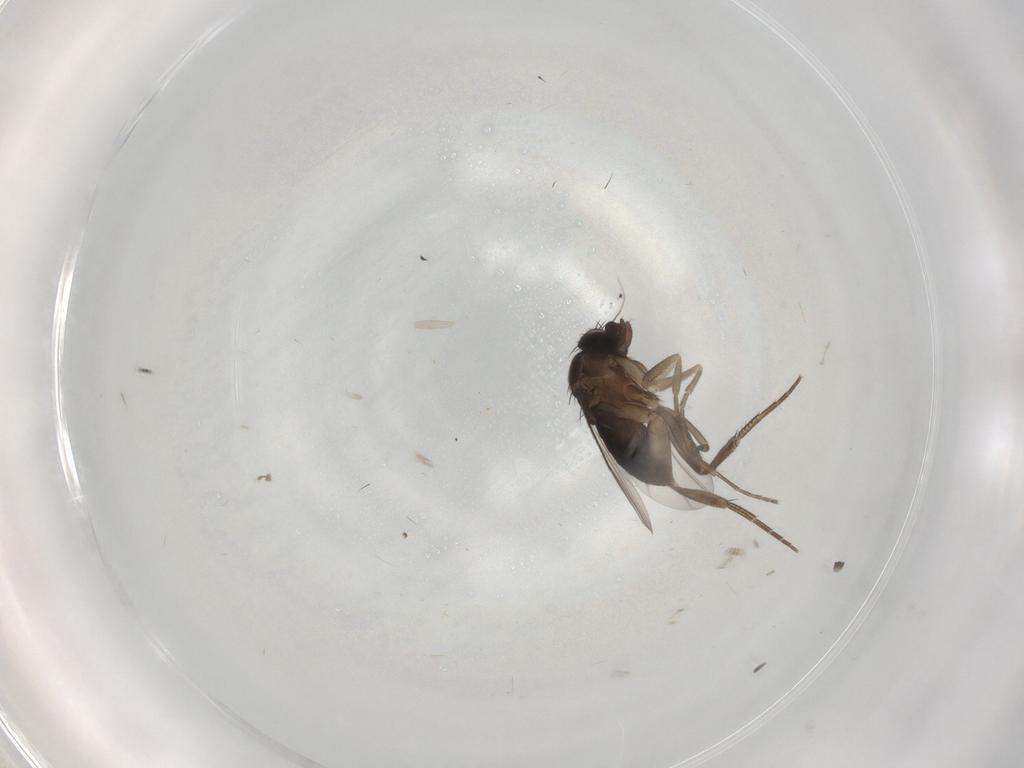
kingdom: Animalia
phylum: Arthropoda
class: Insecta
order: Diptera
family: Phoridae
